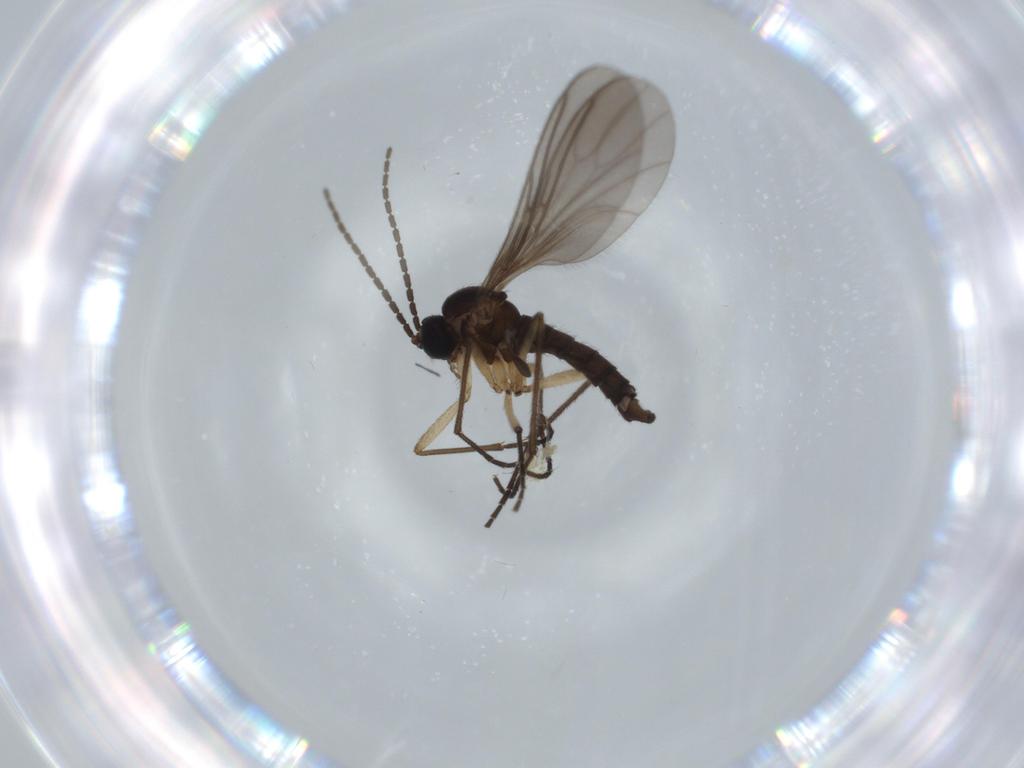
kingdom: Animalia
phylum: Arthropoda
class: Insecta
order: Diptera
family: Sciaridae
